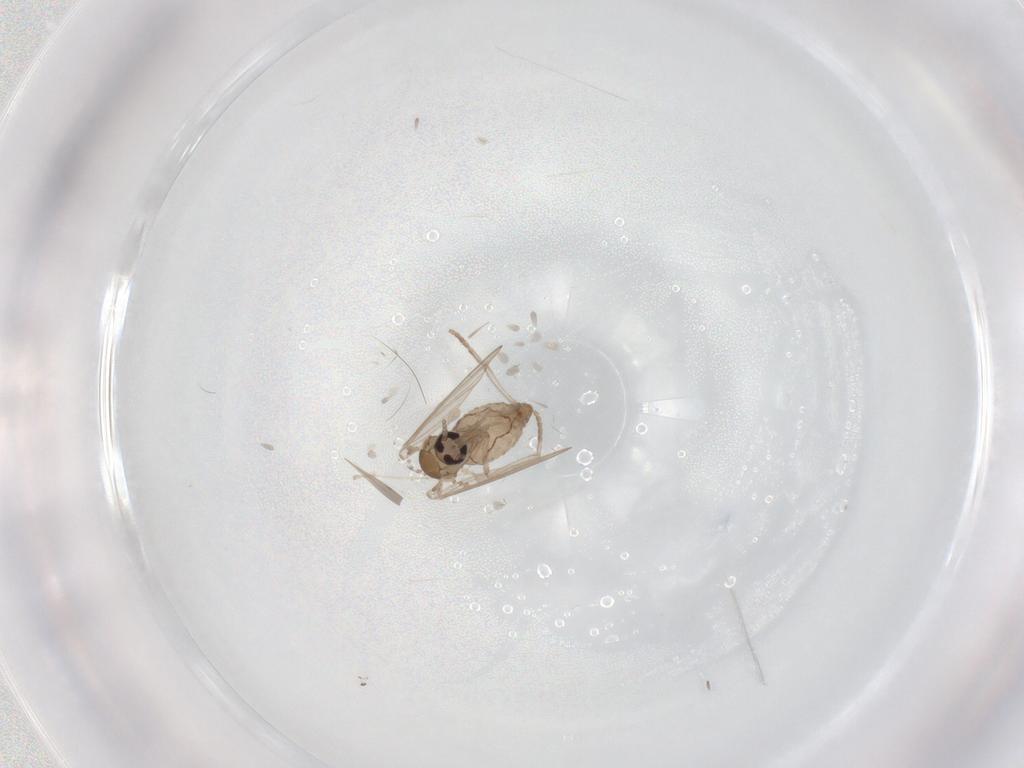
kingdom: Animalia
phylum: Arthropoda
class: Insecta
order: Diptera
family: Psychodidae
